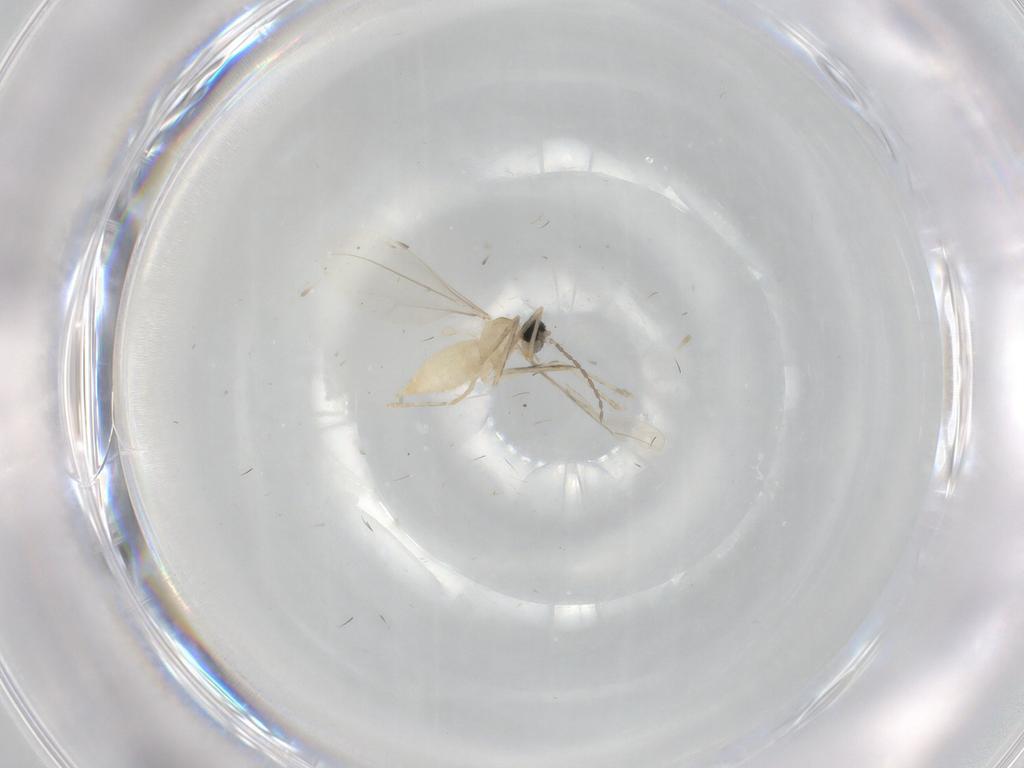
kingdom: Animalia
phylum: Arthropoda
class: Insecta
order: Diptera
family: Cecidomyiidae
